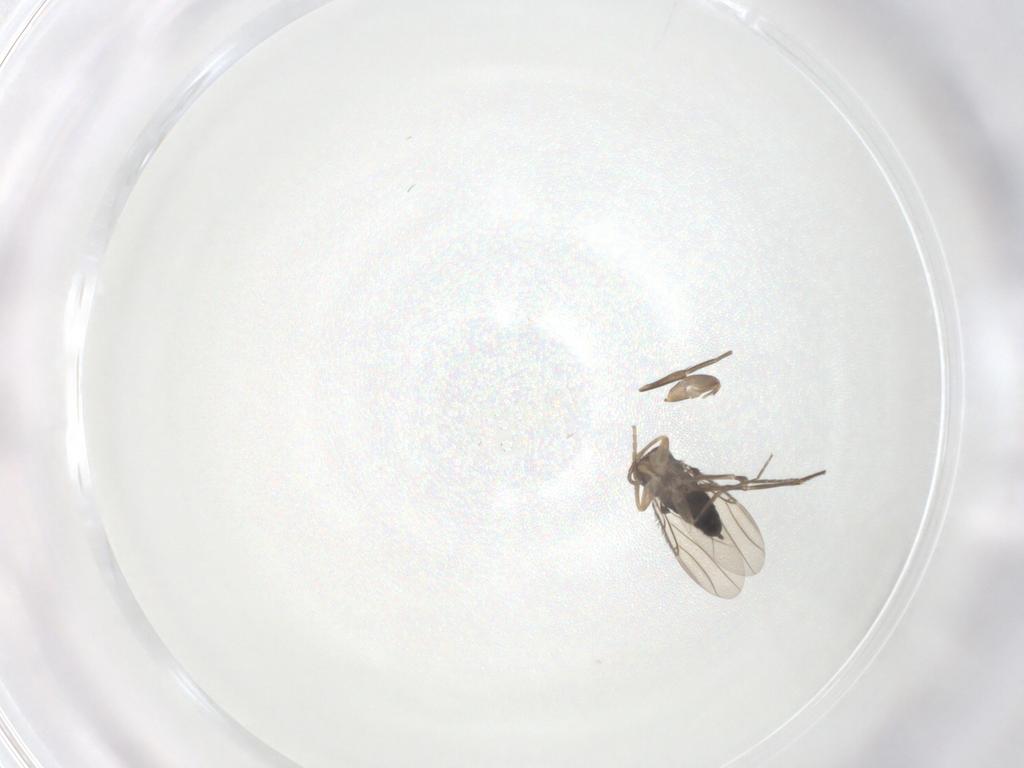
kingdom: Animalia
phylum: Arthropoda
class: Insecta
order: Diptera
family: Phoridae
